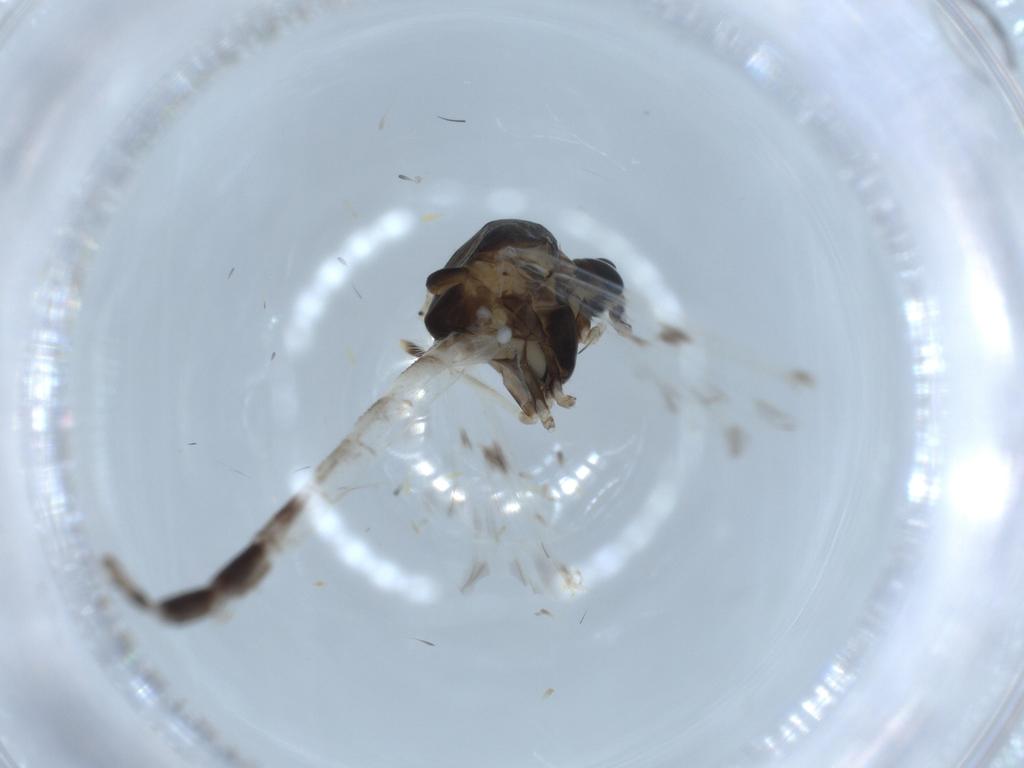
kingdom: Animalia
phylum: Arthropoda
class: Insecta
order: Diptera
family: Chironomidae
